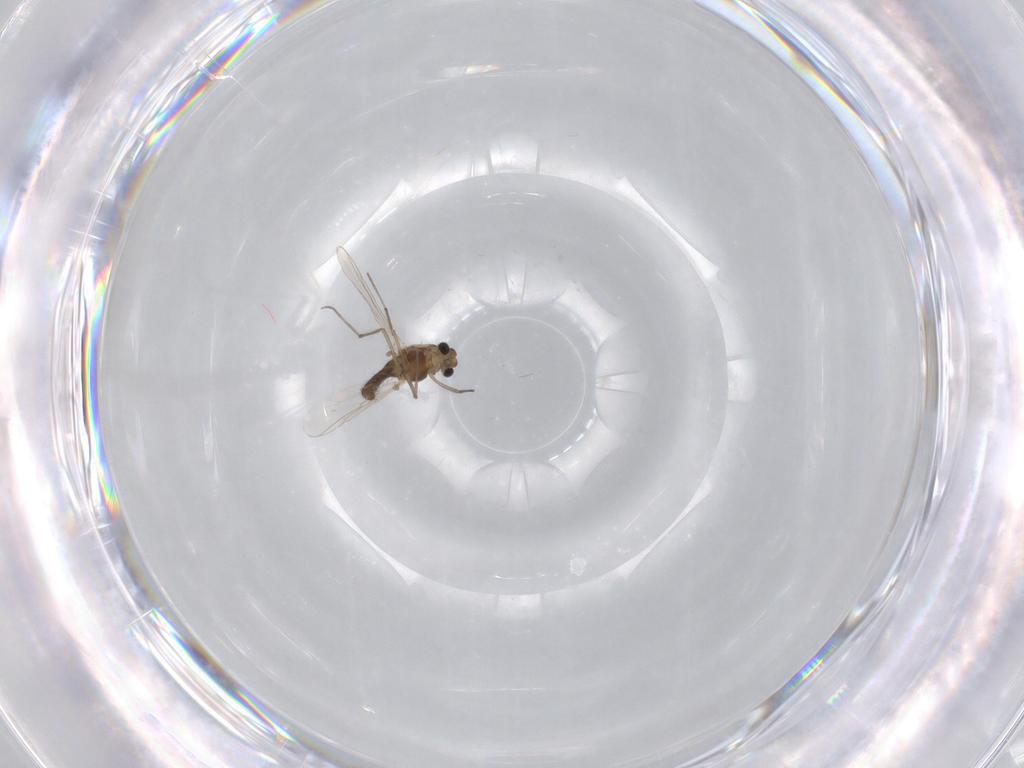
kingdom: Animalia
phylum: Arthropoda
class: Insecta
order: Diptera
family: Chironomidae
